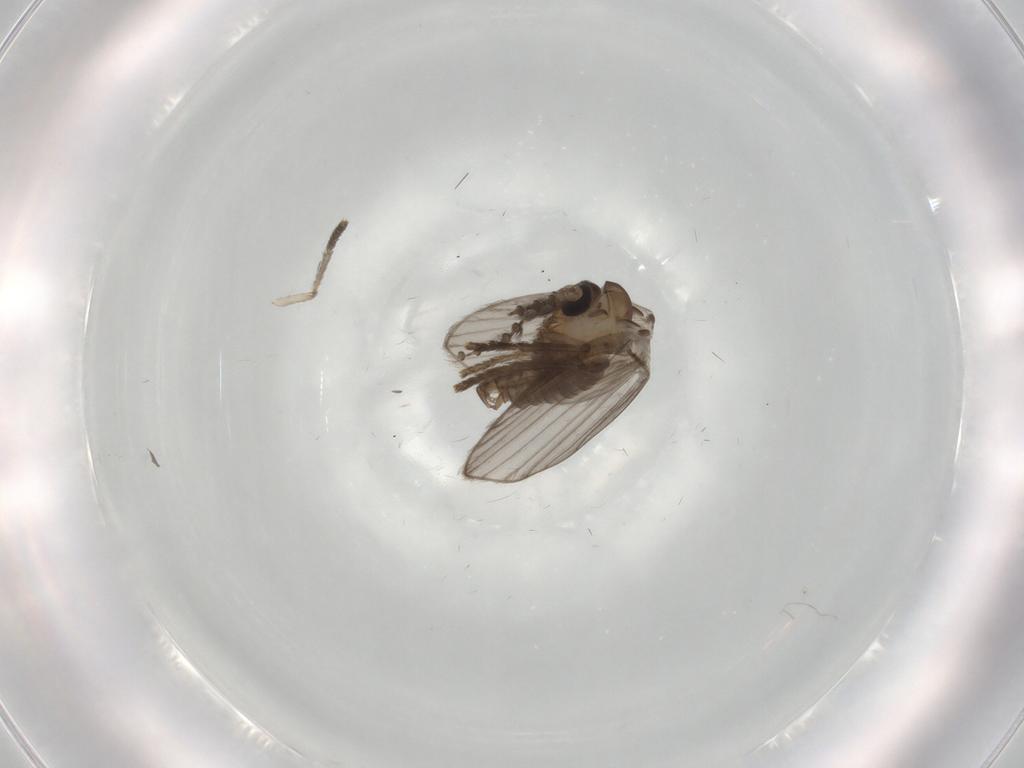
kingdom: Animalia
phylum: Arthropoda
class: Insecta
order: Diptera
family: Psychodidae
